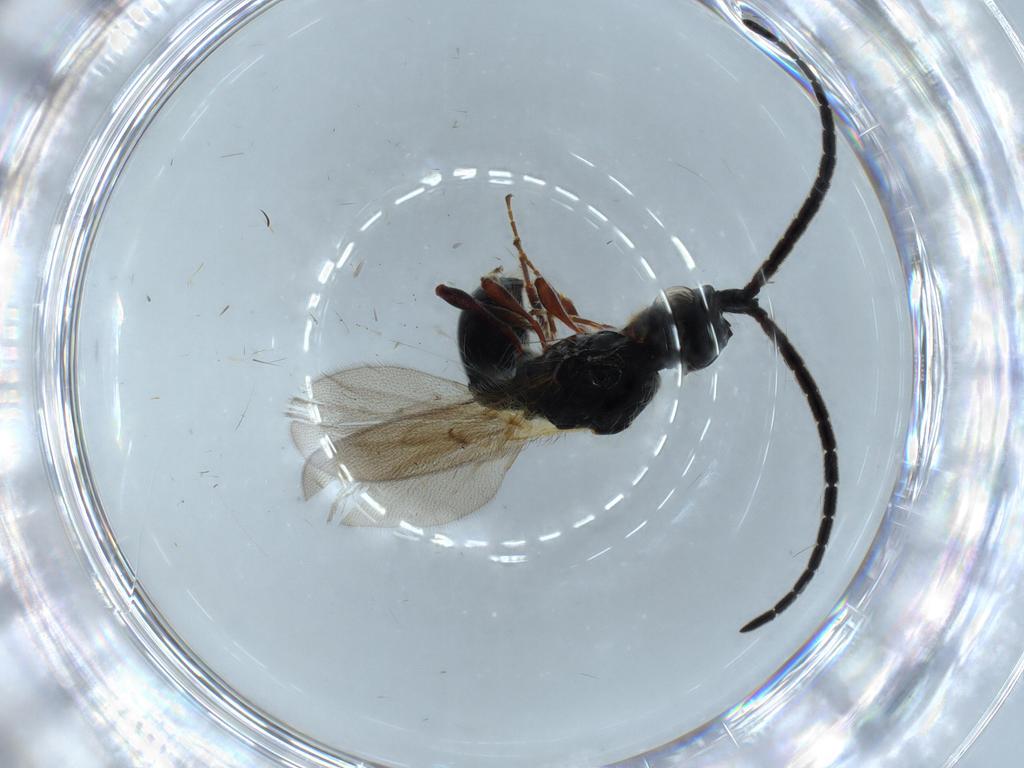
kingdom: Animalia
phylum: Arthropoda
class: Insecta
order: Hymenoptera
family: Diapriidae
